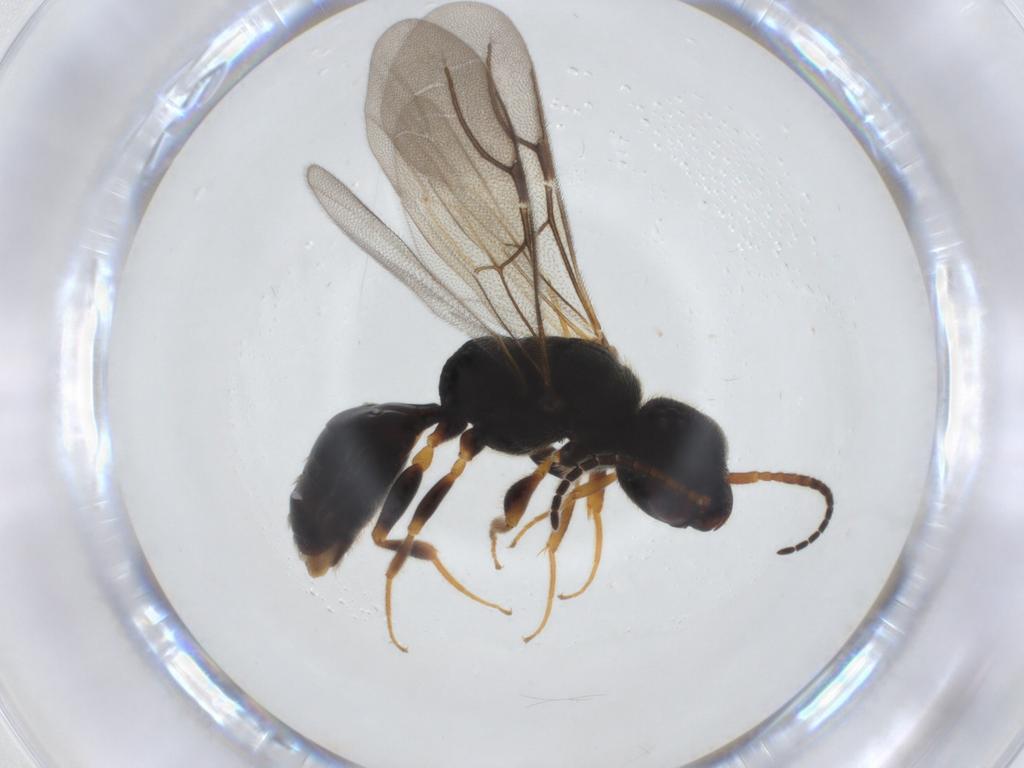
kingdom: Animalia
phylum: Arthropoda
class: Insecta
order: Hymenoptera
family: Bethylidae
